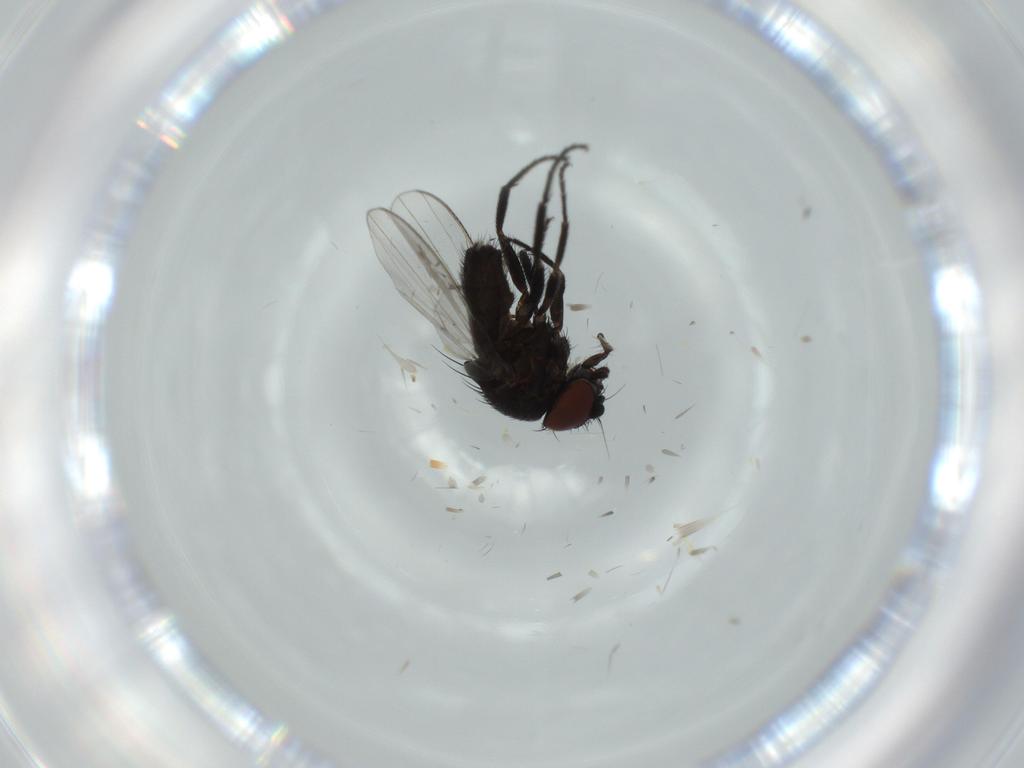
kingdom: Animalia
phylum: Arthropoda
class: Insecta
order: Diptera
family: Milichiidae
